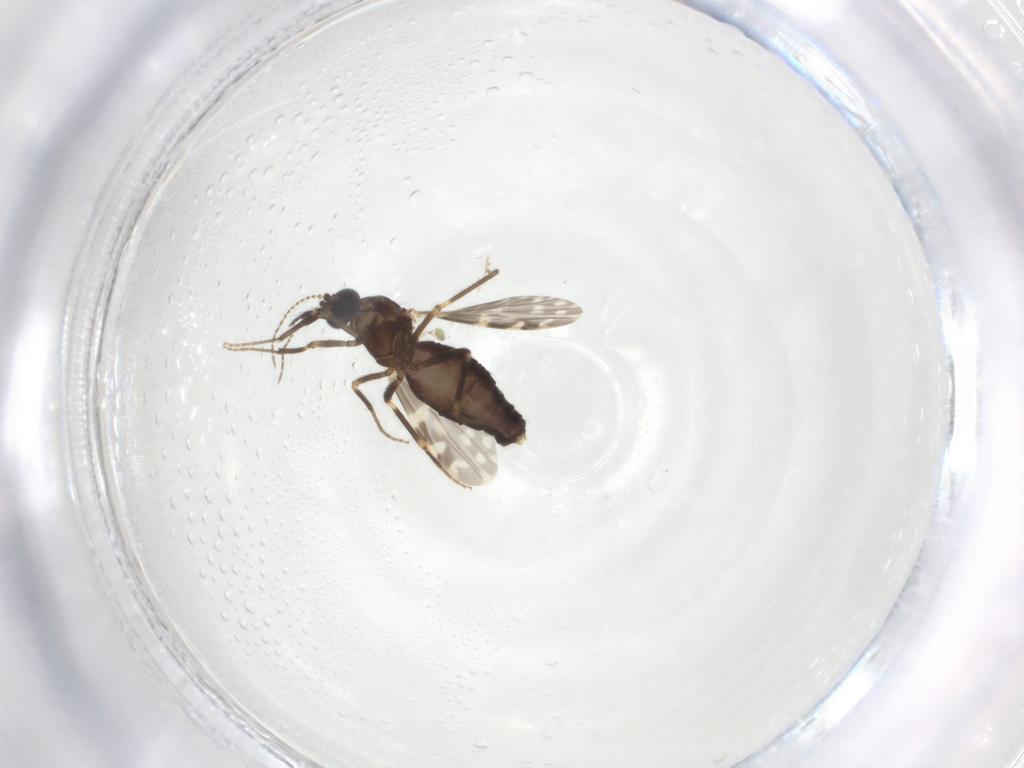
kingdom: Animalia
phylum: Arthropoda
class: Insecta
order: Diptera
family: Ceratopogonidae
